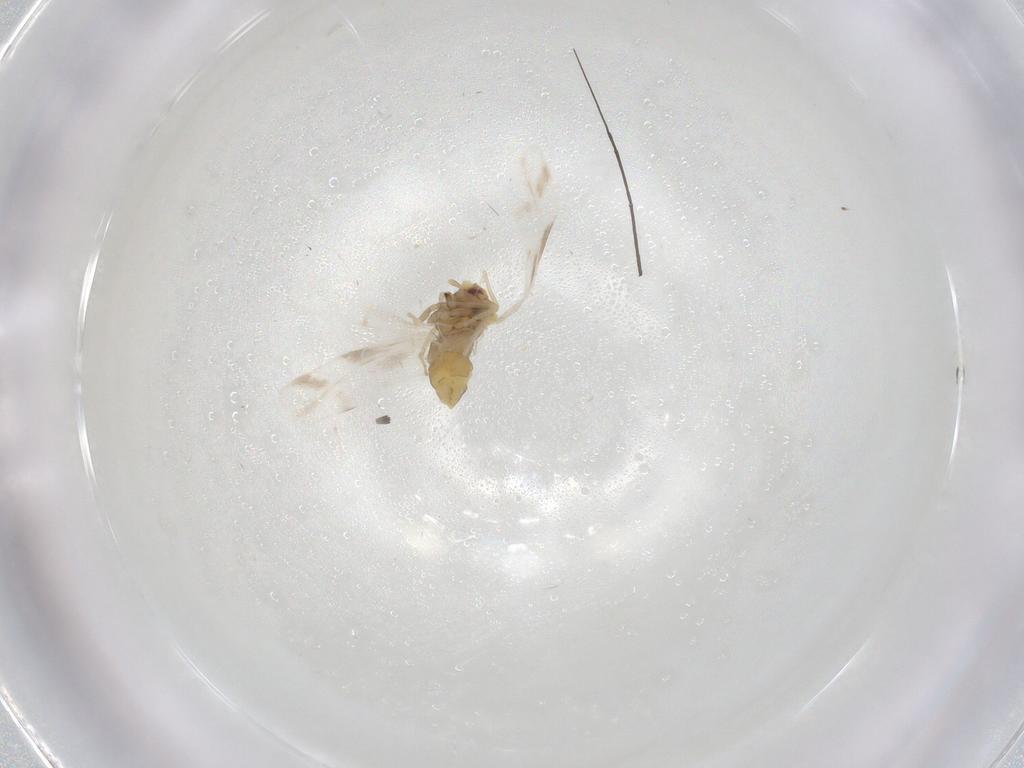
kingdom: Animalia
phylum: Arthropoda
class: Insecta
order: Hemiptera
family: Aleyrodidae
